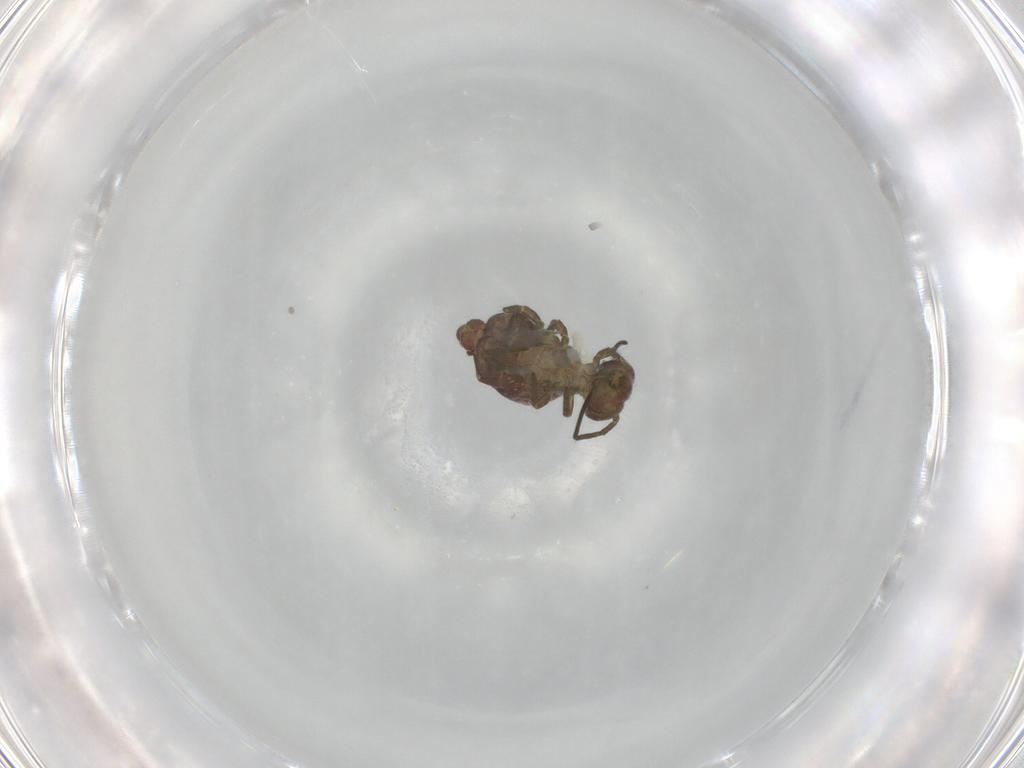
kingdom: Animalia
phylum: Arthropoda
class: Collembola
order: Symphypleona
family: Sminthuridae
